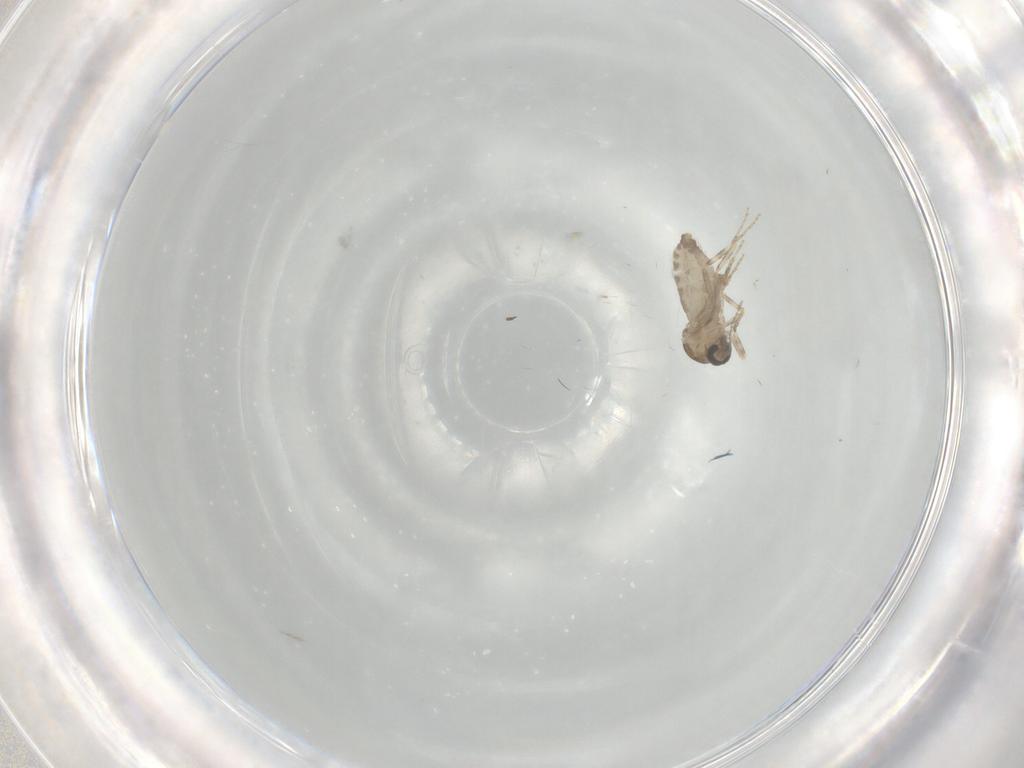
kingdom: Animalia
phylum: Arthropoda
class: Insecta
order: Diptera
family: Ceratopogonidae
